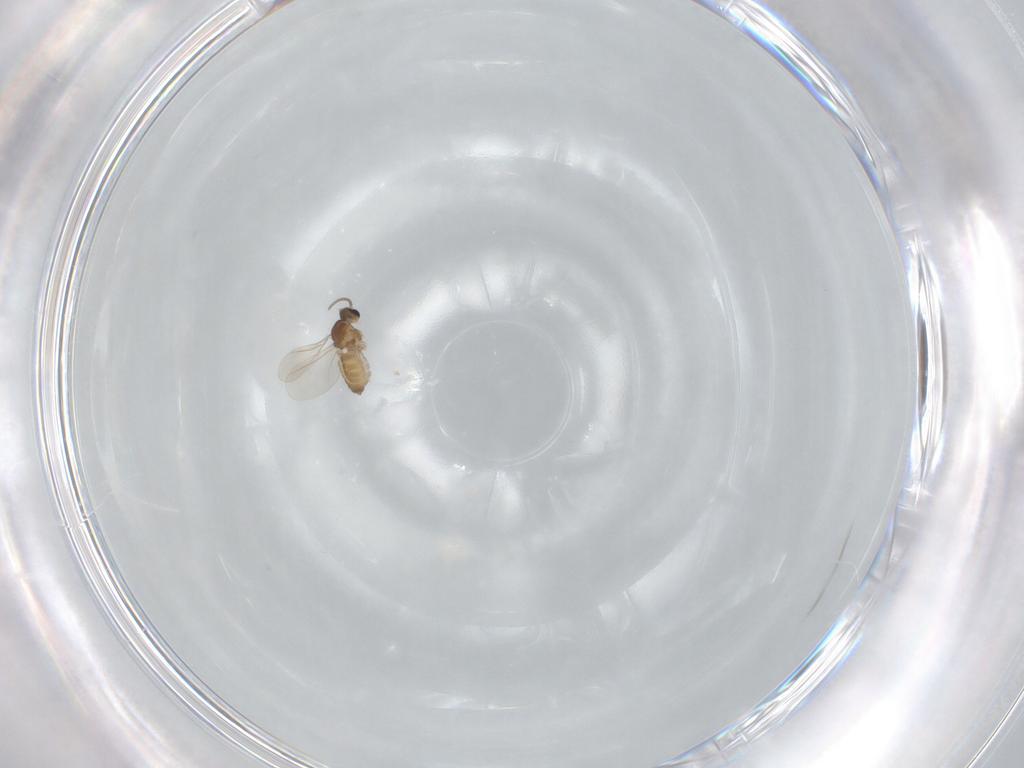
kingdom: Animalia
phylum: Arthropoda
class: Insecta
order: Diptera
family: Cecidomyiidae
